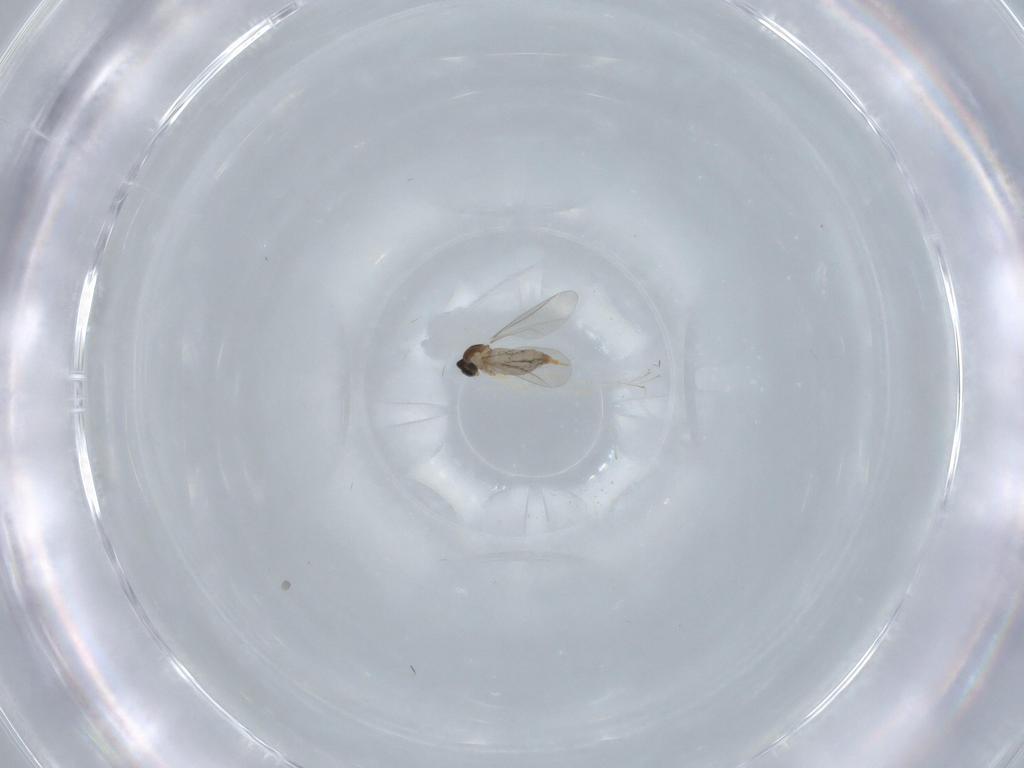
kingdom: Animalia
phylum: Arthropoda
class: Insecta
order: Diptera
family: Cecidomyiidae
